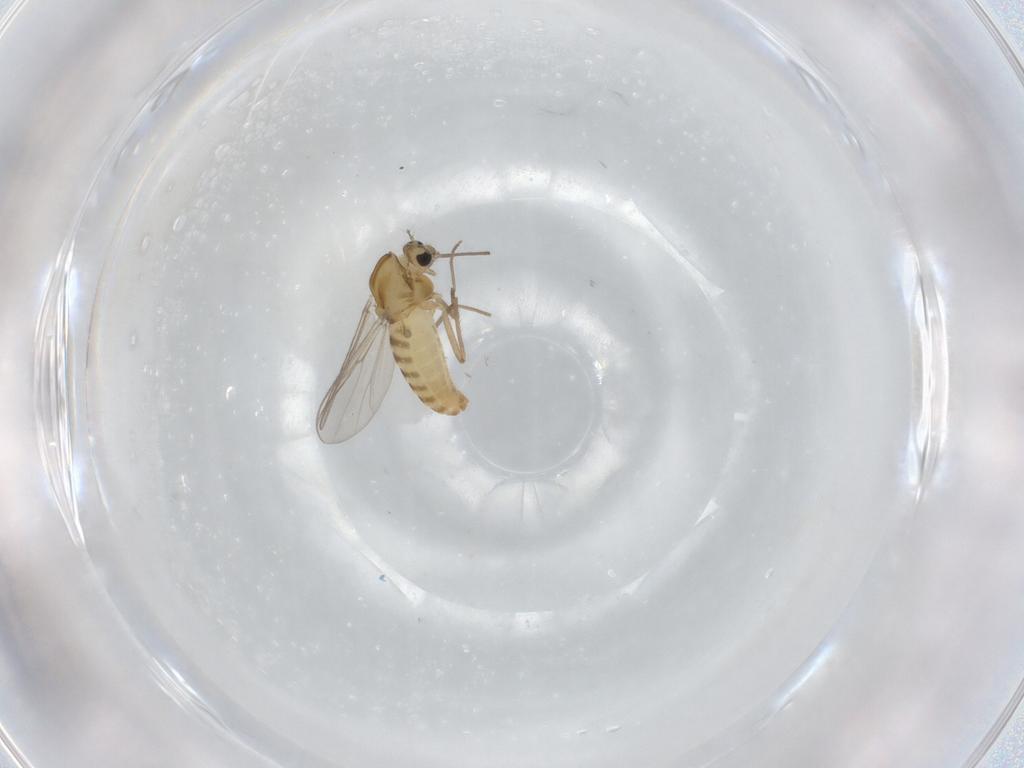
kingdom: Animalia
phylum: Arthropoda
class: Insecta
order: Diptera
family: Chironomidae
